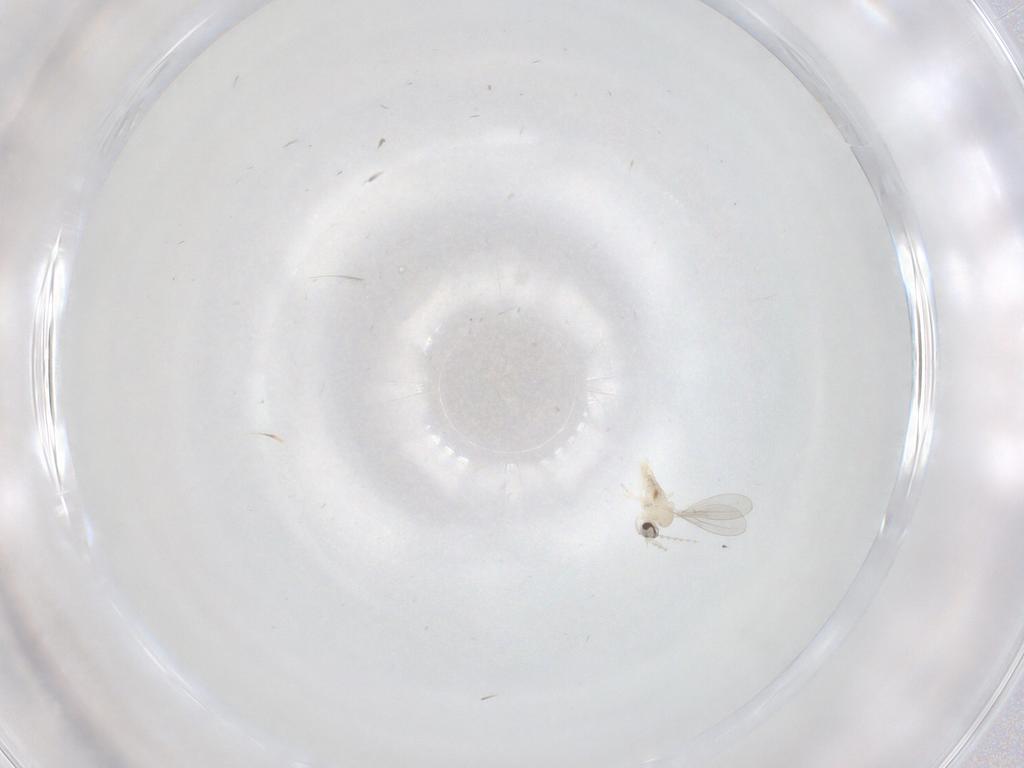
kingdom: Animalia
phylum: Arthropoda
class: Insecta
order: Diptera
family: Cecidomyiidae
